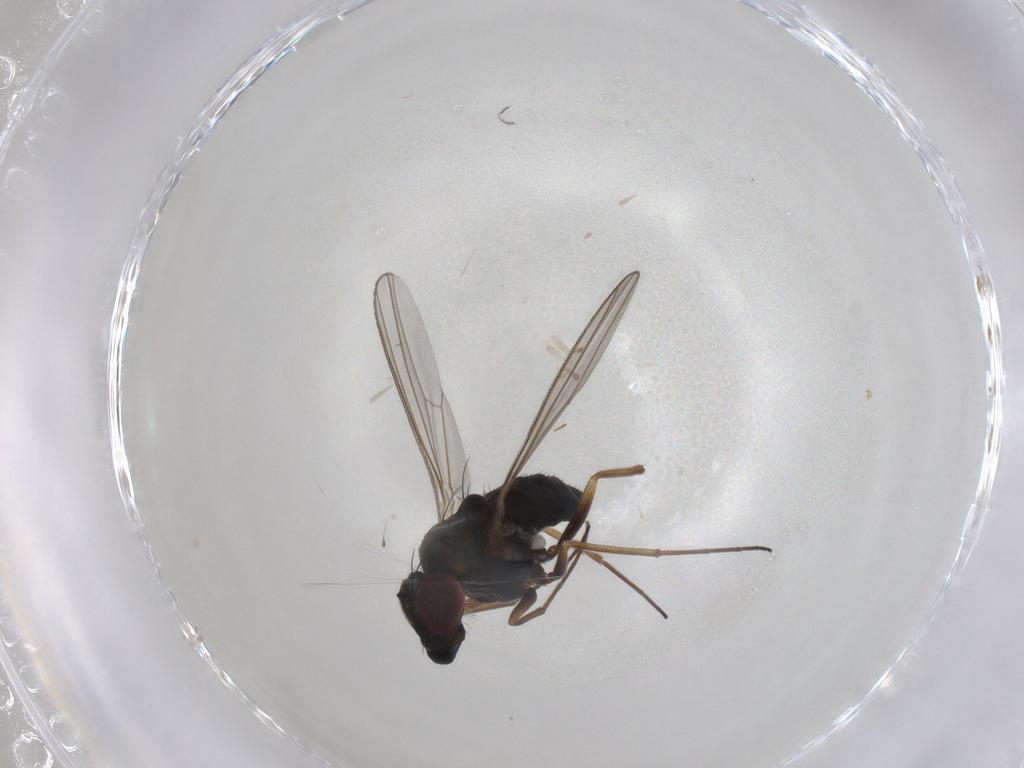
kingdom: Animalia
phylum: Arthropoda
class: Insecta
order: Diptera
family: Dolichopodidae
